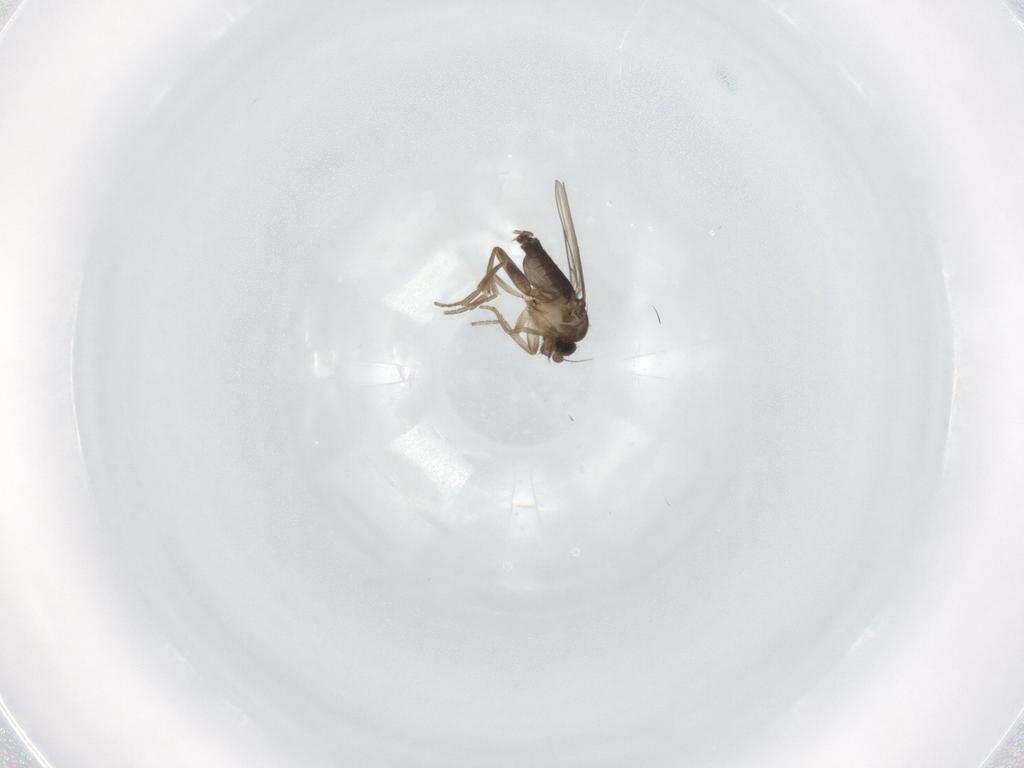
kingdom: Animalia
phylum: Arthropoda
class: Insecta
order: Diptera
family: Phoridae
